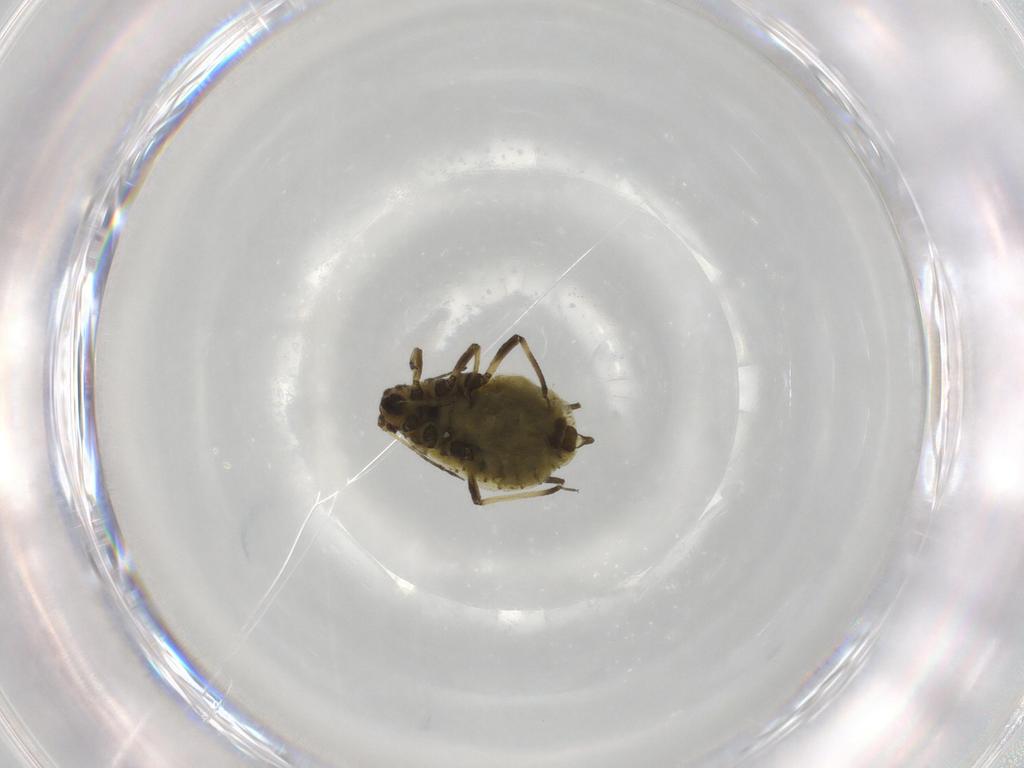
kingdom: Animalia
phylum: Arthropoda
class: Insecta
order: Hemiptera
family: Aphididae
